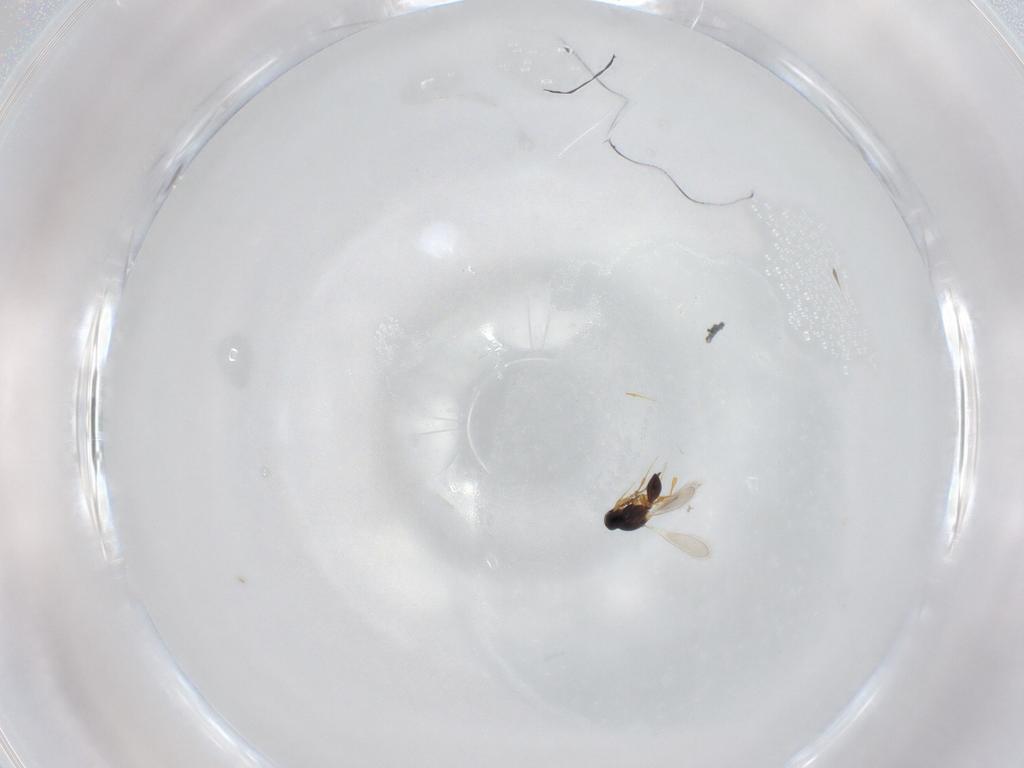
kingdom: Animalia
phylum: Arthropoda
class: Insecta
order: Hymenoptera
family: Platygastridae
